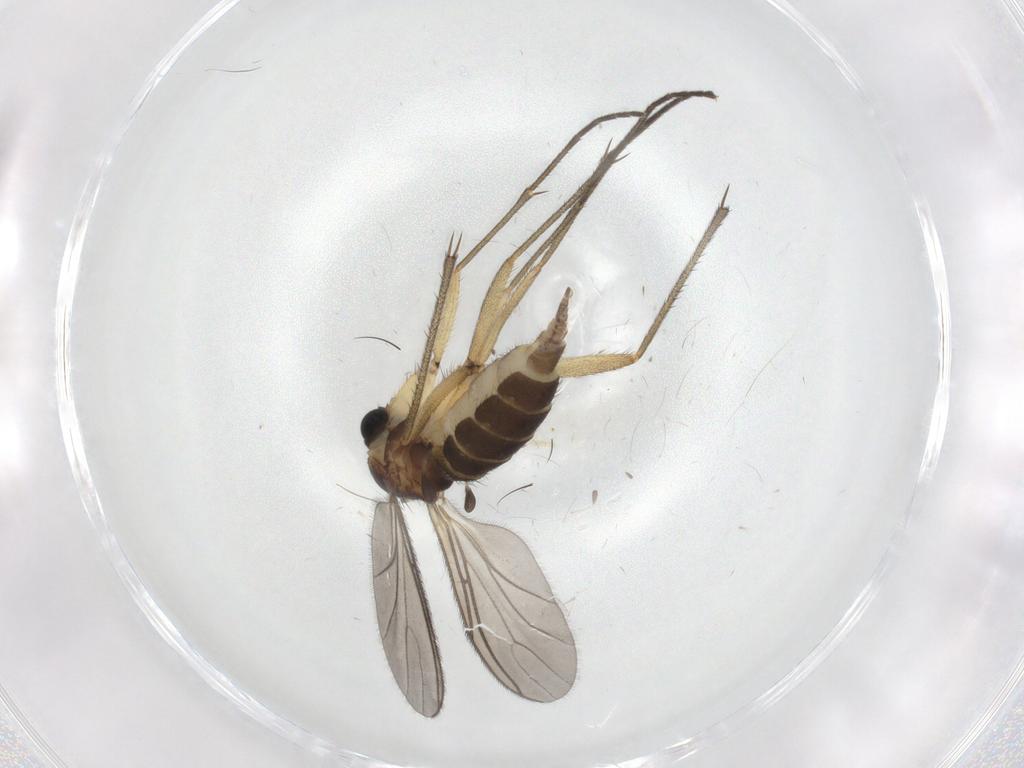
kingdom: Animalia
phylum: Arthropoda
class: Insecta
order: Diptera
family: Sciaridae
